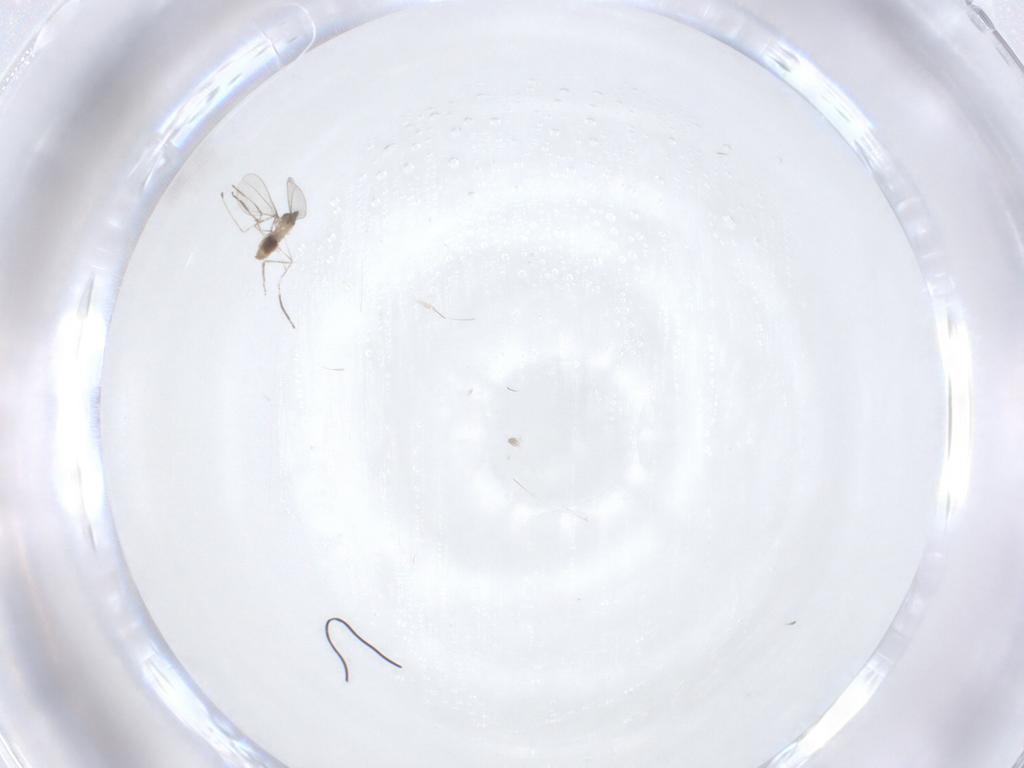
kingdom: Animalia
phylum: Arthropoda
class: Insecta
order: Diptera
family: Cecidomyiidae
